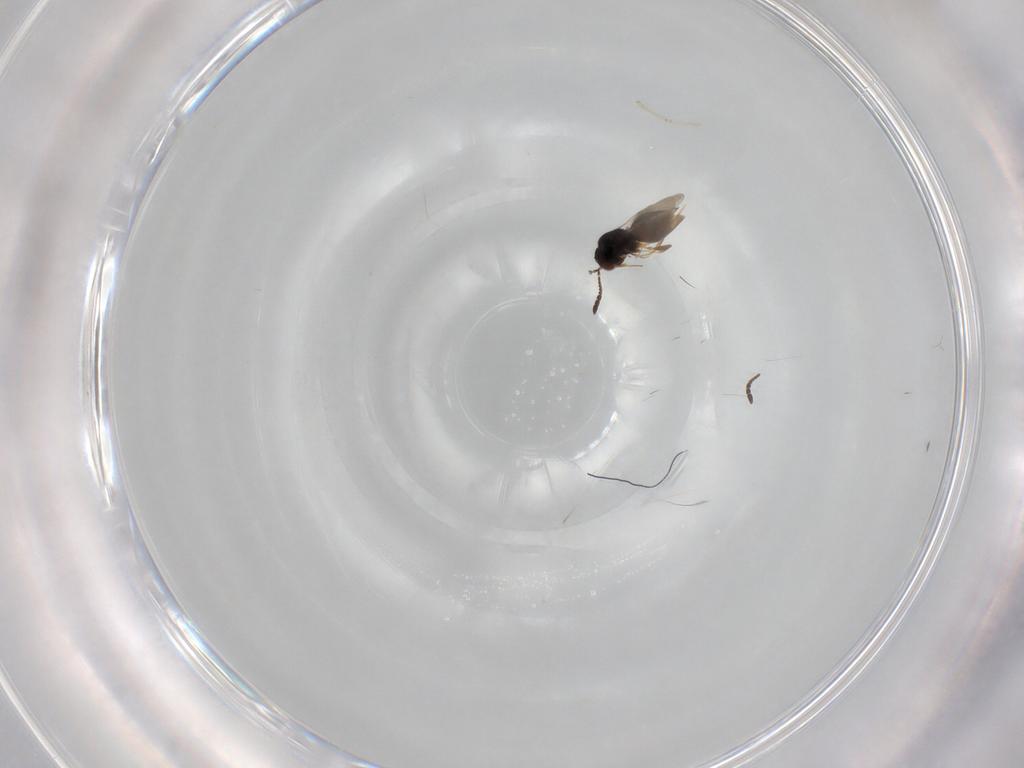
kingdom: Animalia
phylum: Arthropoda
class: Insecta
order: Hymenoptera
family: Ceraphronidae
